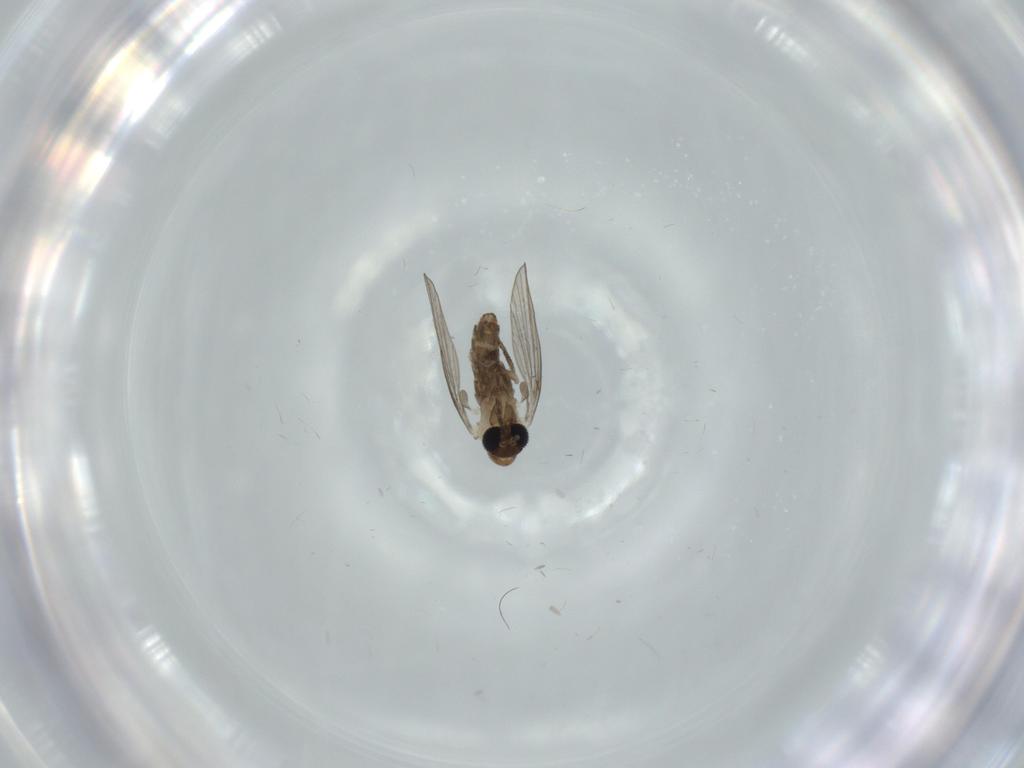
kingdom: Animalia
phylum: Arthropoda
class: Insecta
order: Diptera
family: Psychodidae
